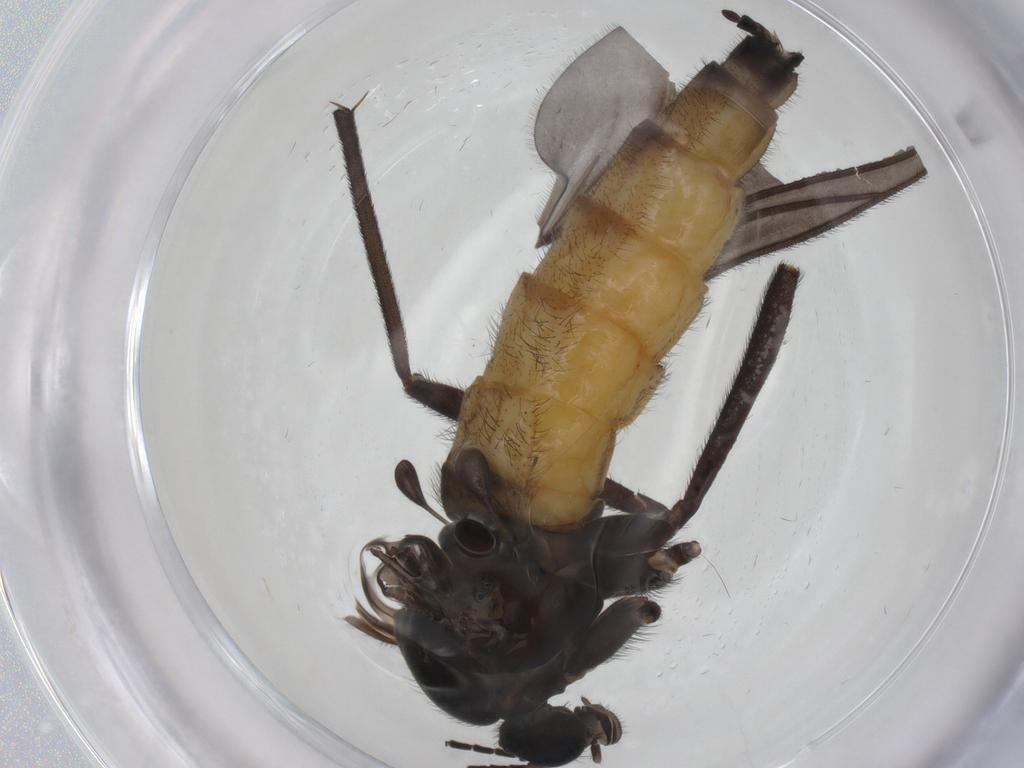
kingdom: Animalia
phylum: Arthropoda
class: Insecta
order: Diptera
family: Cecidomyiidae
